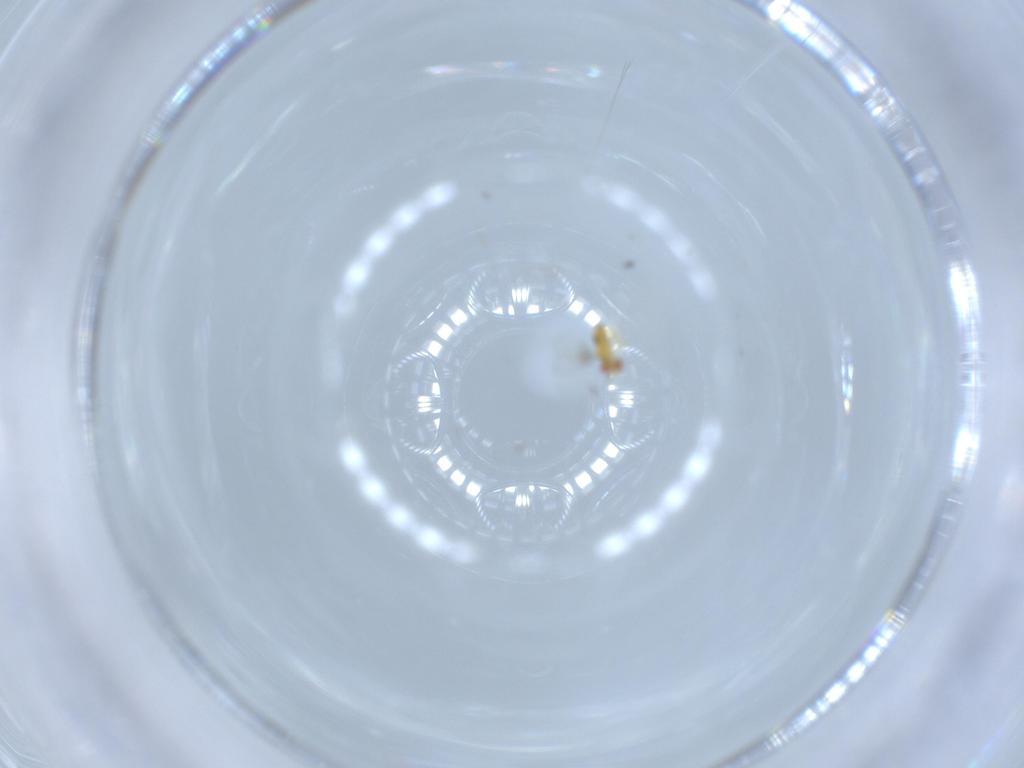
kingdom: Animalia
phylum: Arthropoda
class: Insecta
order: Hymenoptera
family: Trichogrammatidae
